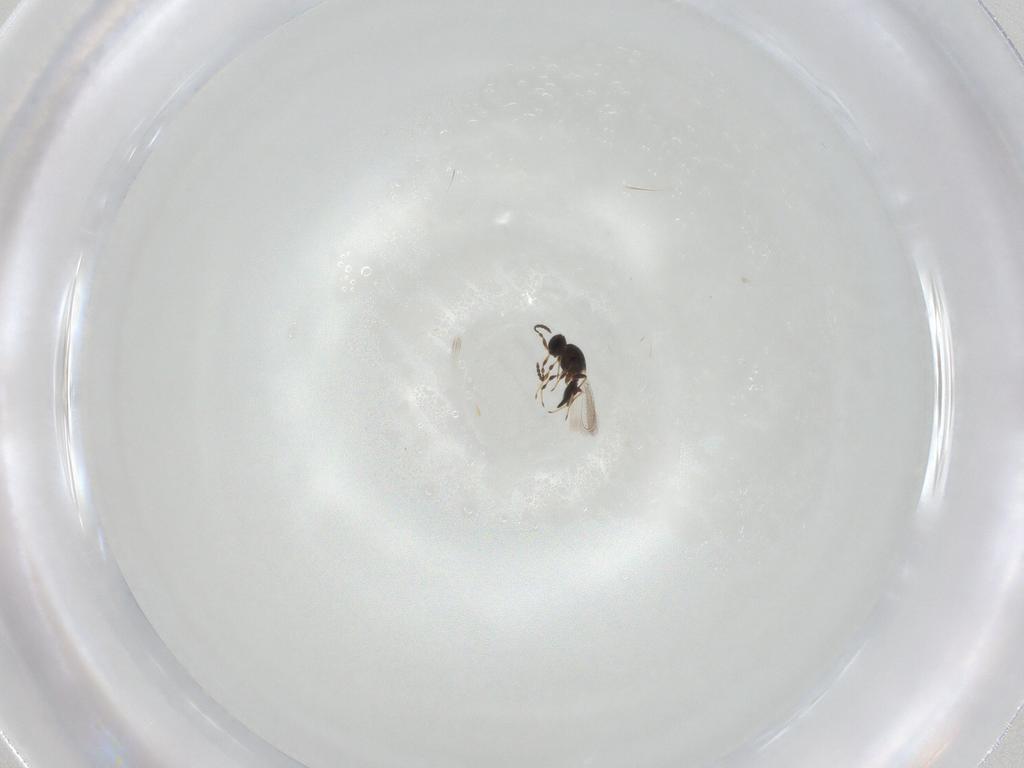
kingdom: Animalia
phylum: Arthropoda
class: Insecta
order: Hymenoptera
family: Platygastridae
